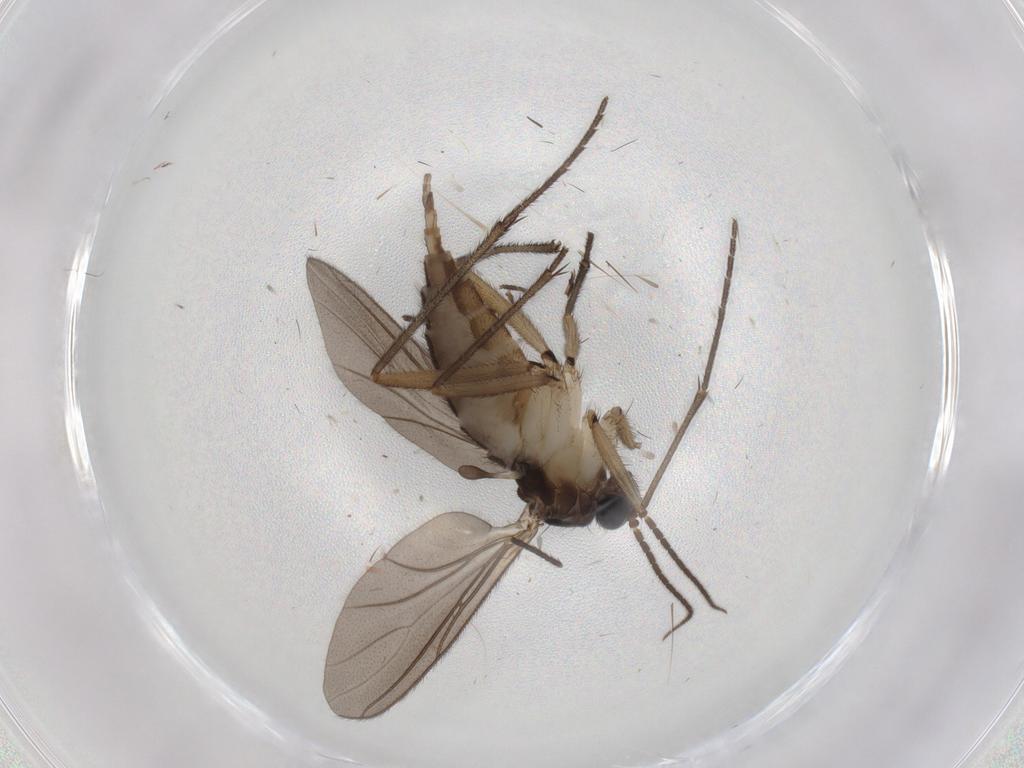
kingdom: Animalia
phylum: Arthropoda
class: Insecta
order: Diptera
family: Sciaridae
